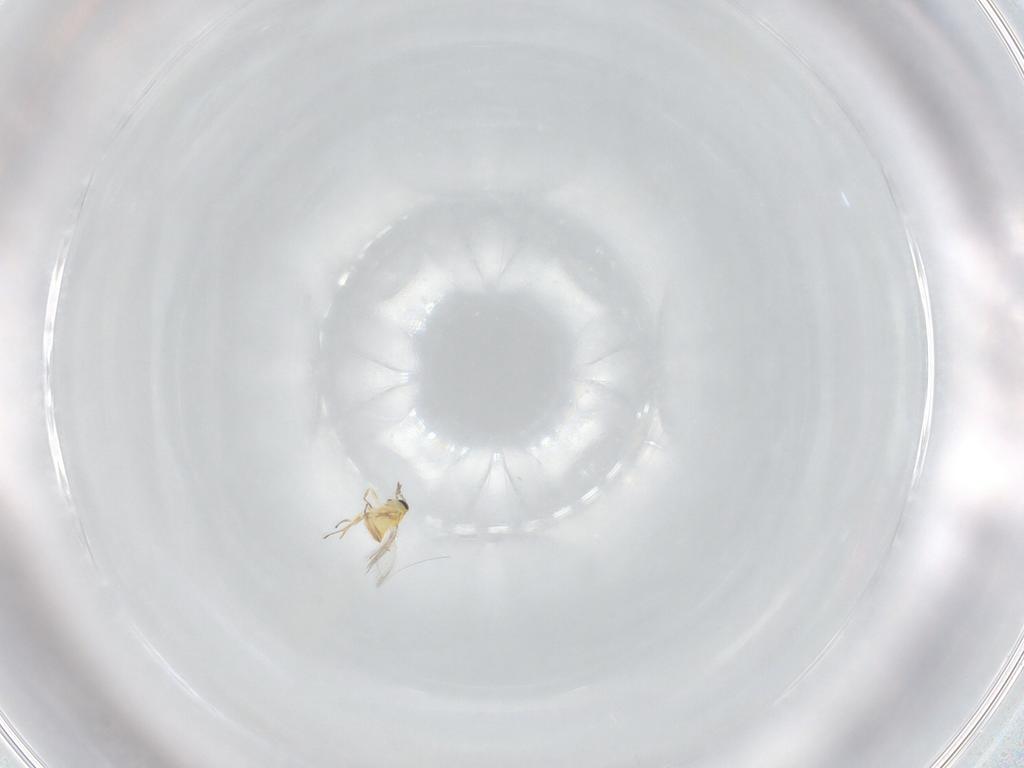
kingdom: Animalia
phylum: Arthropoda
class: Insecta
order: Hymenoptera
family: Trichogrammatidae
